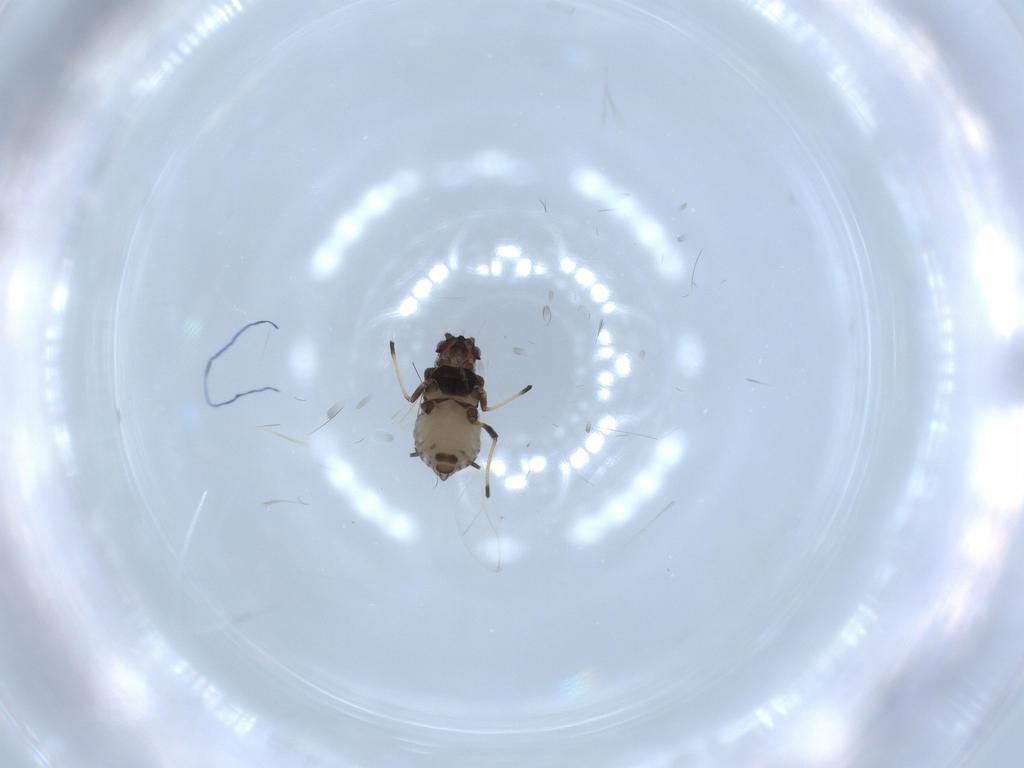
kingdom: Animalia
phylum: Arthropoda
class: Insecta
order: Hemiptera
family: Aphididae
